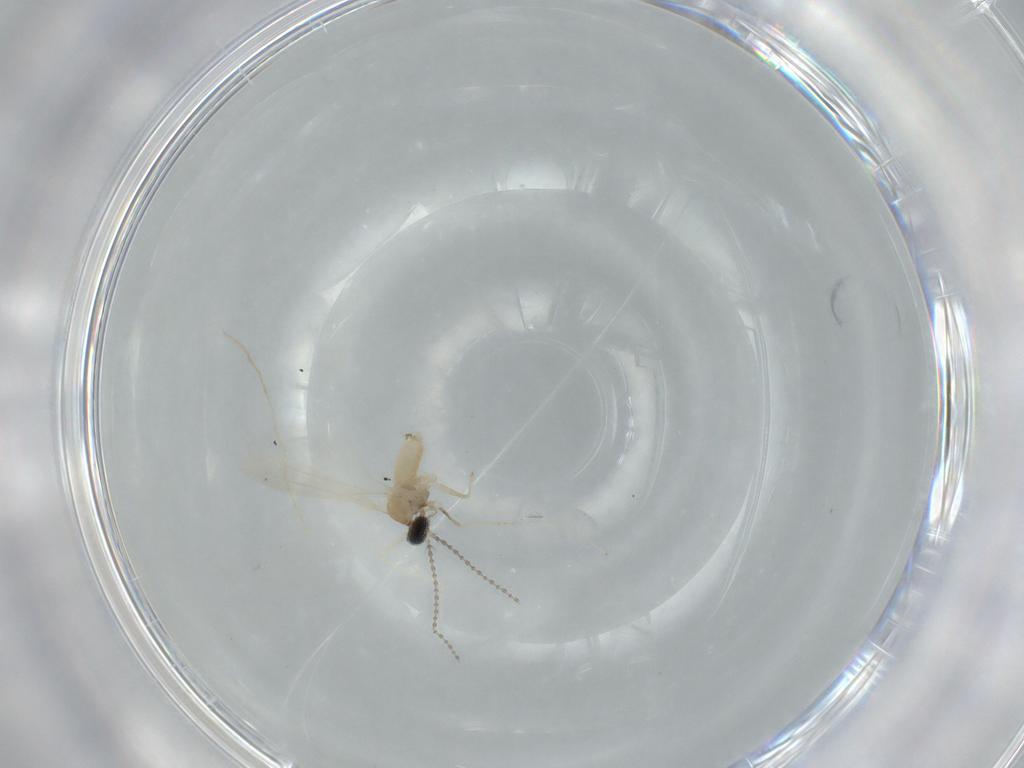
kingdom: Animalia
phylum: Arthropoda
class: Insecta
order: Diptera
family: Cecidomyiidae
